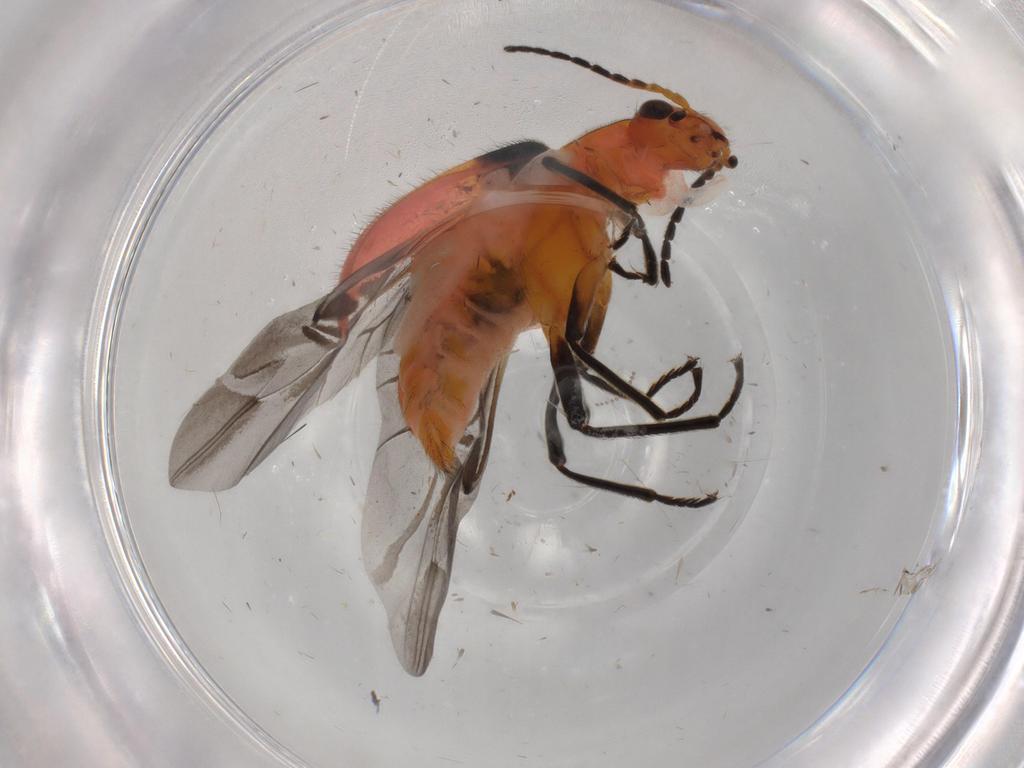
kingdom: Animalia
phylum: Arthropoda
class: Insecta
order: Coleoptera
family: Melyridae
